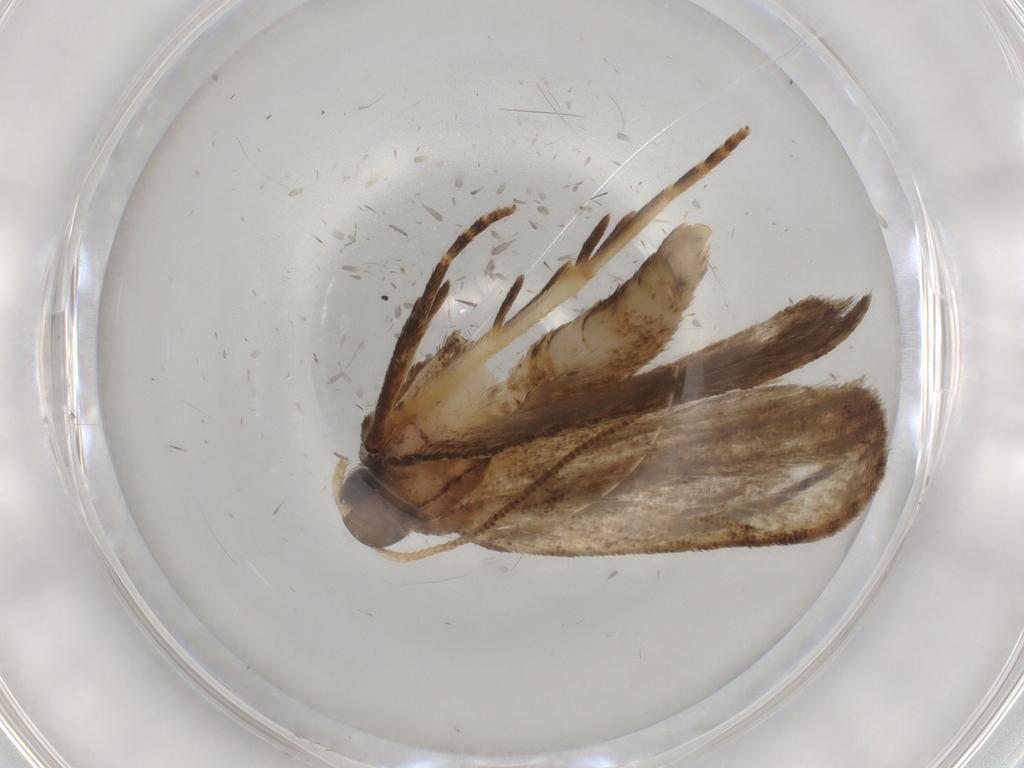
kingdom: Animalia
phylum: Arthropoda
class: Insecta
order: Lepidoptera
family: Gelechiidae
